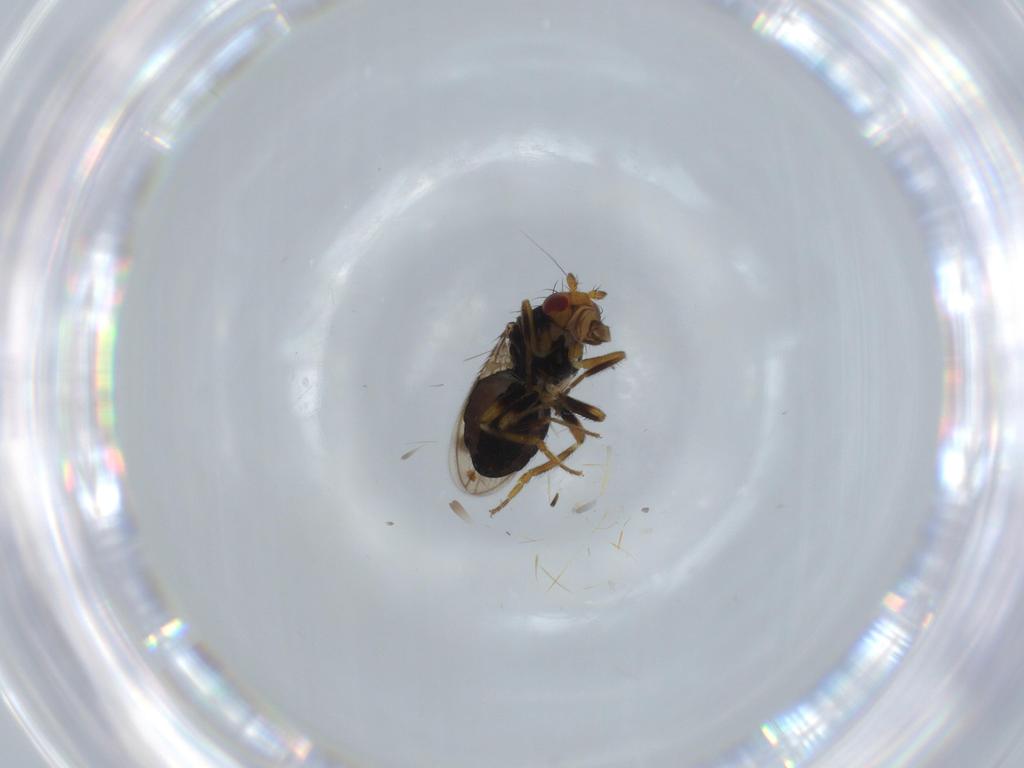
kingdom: Animalia
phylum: Arthropoda
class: Insecta
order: Diptera
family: Sphaeroceridae
